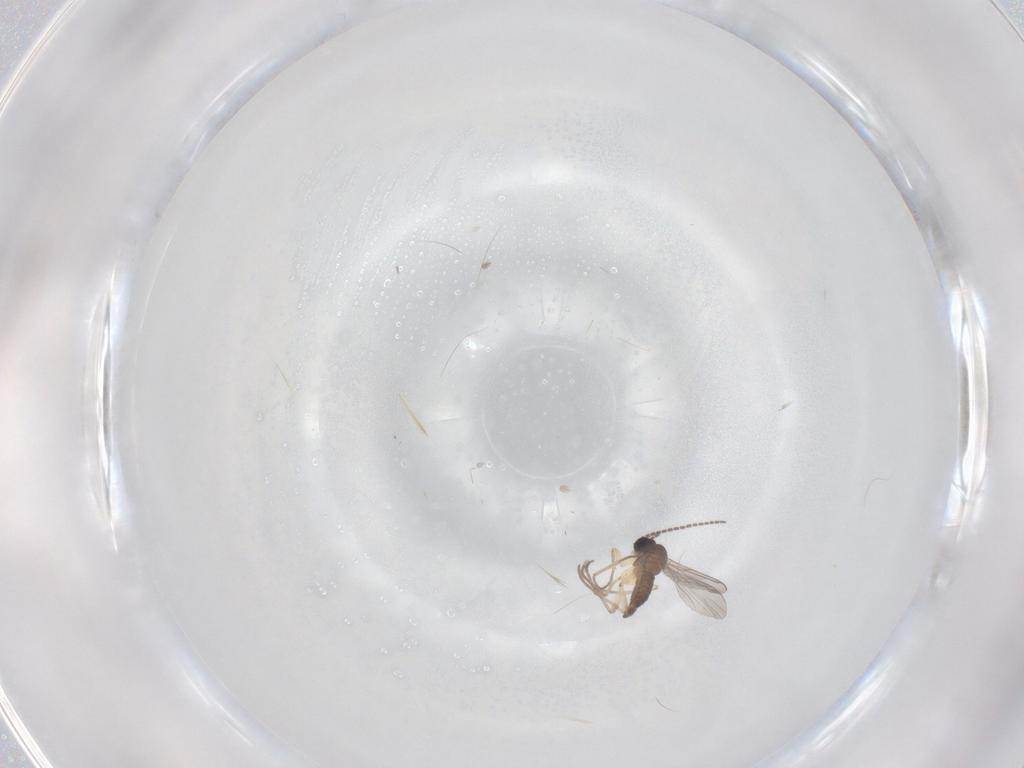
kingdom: Animalia
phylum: Arthropoda
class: Insecta
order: Diptera
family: Sciaridae
